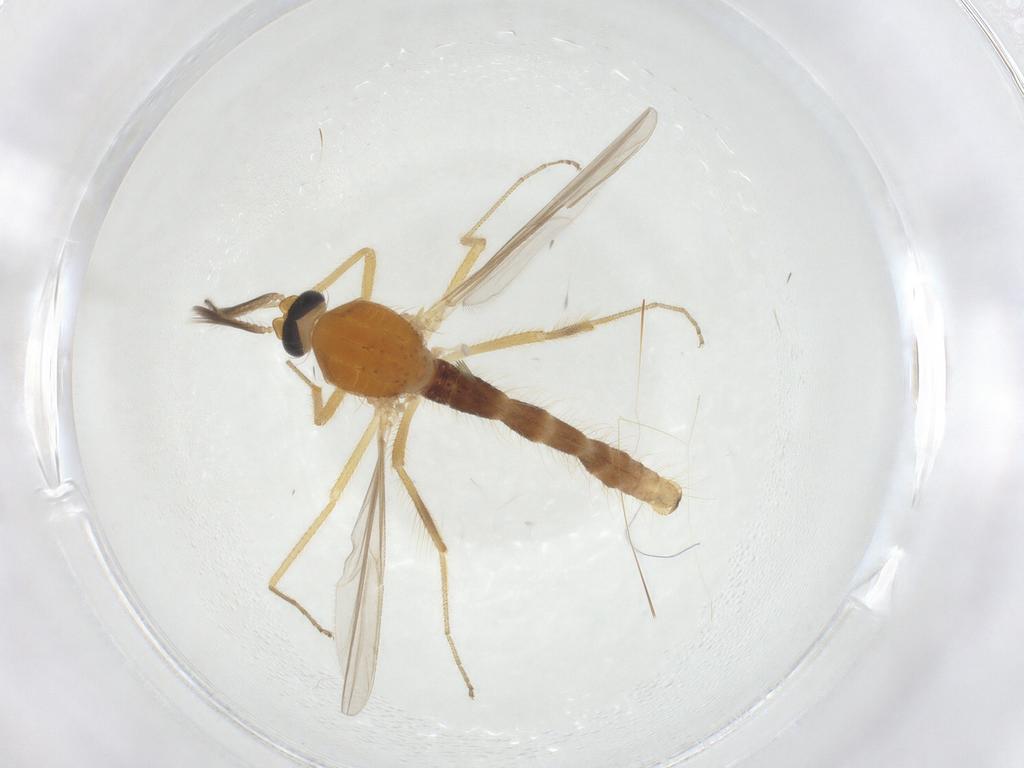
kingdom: Animalia
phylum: Arthropoda
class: Insecta
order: Diptera
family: Ceratopogonidae
